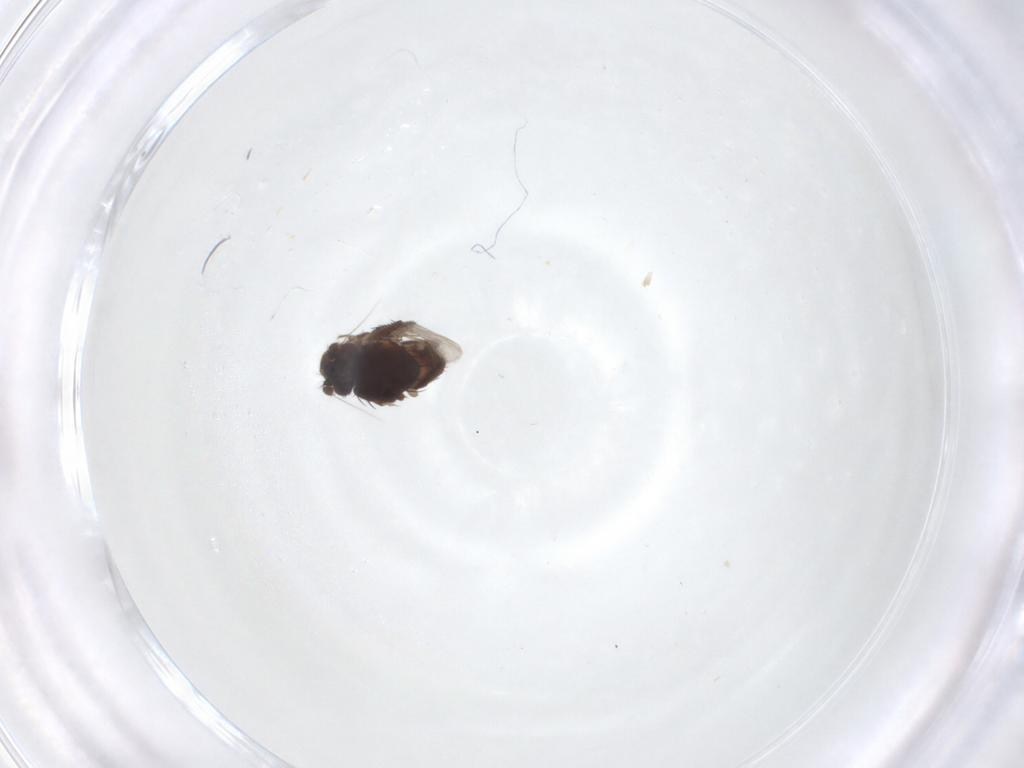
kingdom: Animalia
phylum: Arthropoda
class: Insecta
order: Diptera
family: Sphaeroceridae
